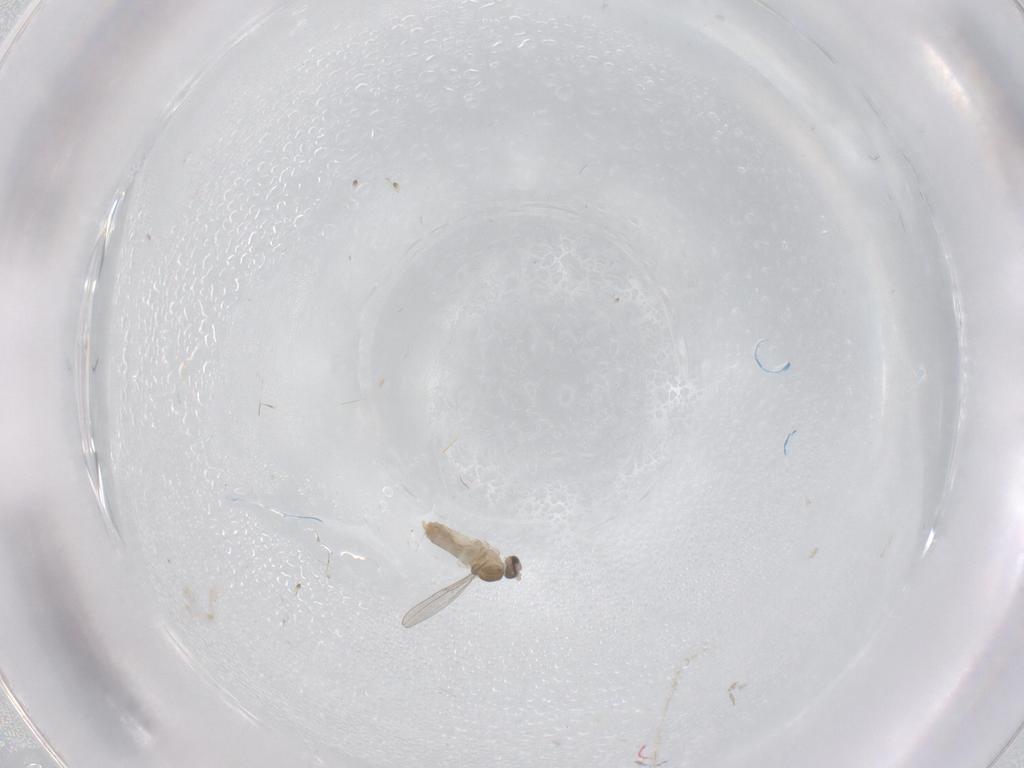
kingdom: Animalia
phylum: Arthropoda
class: Insecta
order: Diptera
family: Cecidomyiidae
